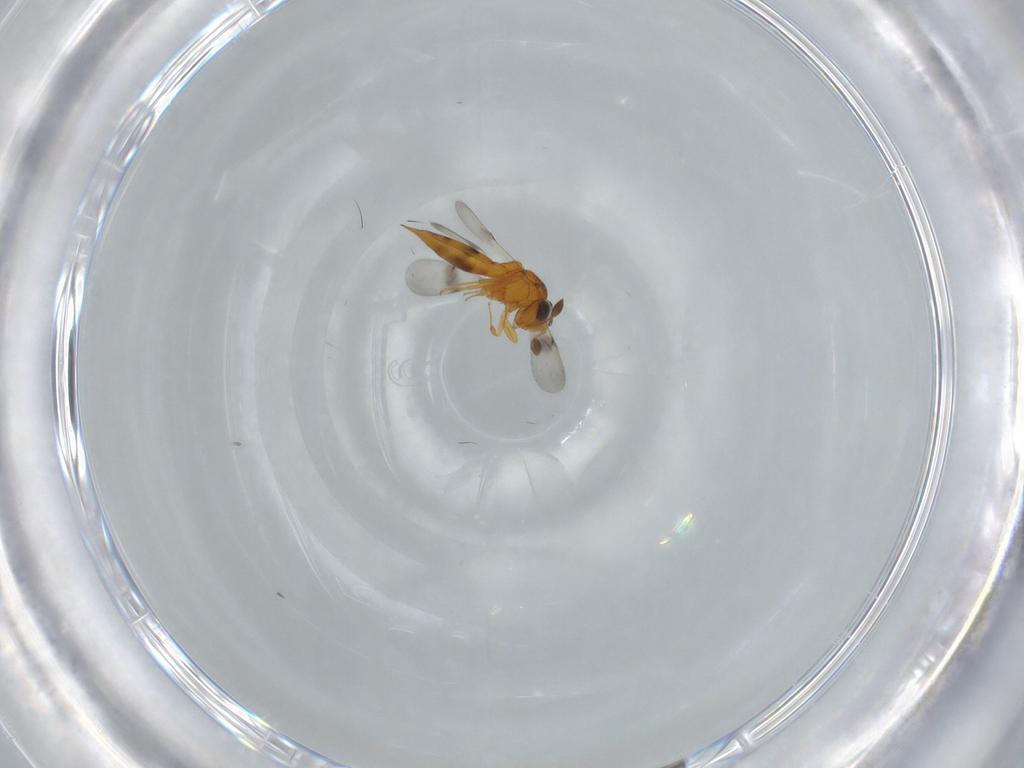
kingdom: Animalia
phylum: Arthropoda
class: Insecta
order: Hymenoptera
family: Scelionidae
